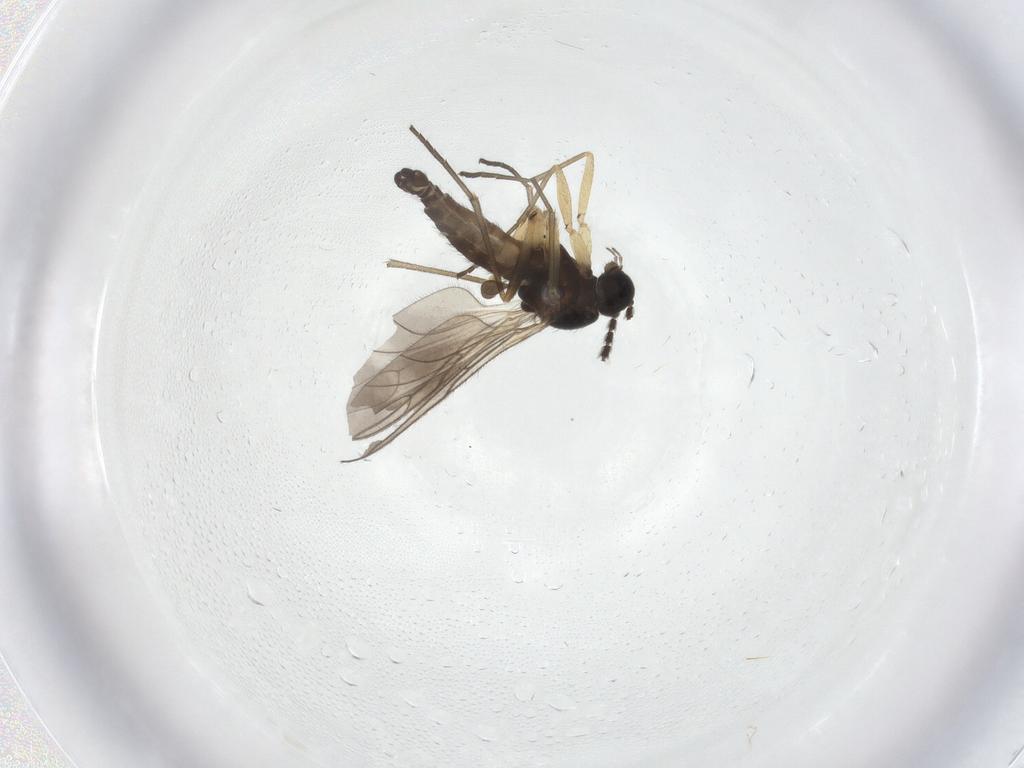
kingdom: Animalia
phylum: Arthropoda
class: Insecta
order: Diptera
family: Sciaridae
